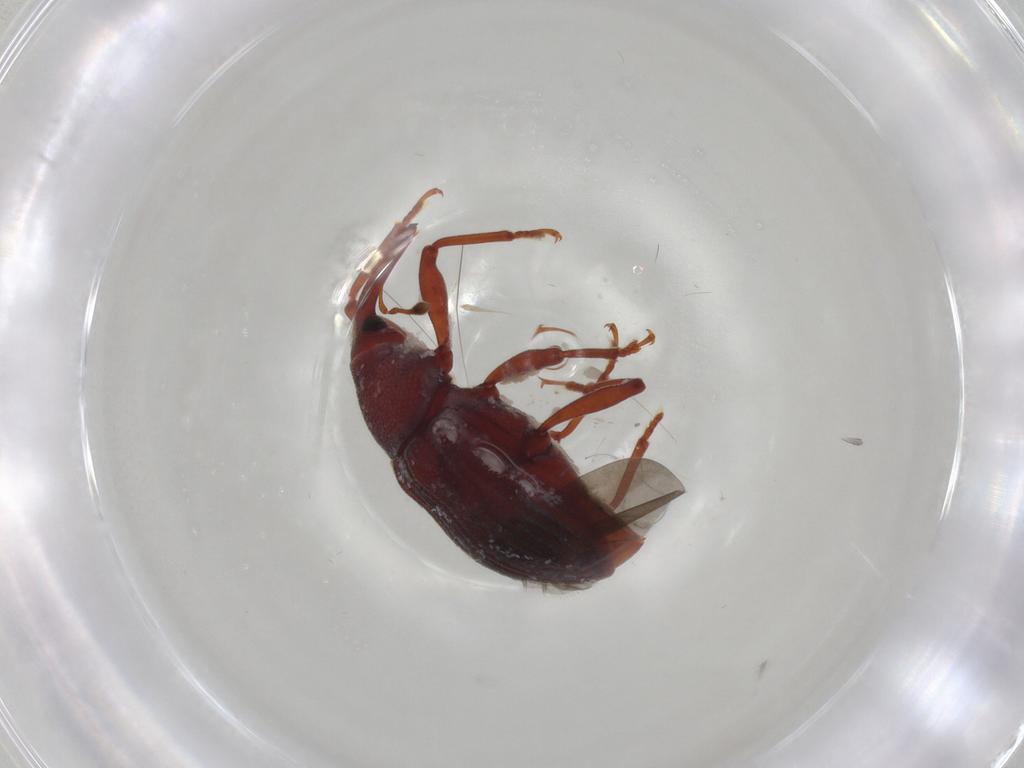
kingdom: Animalia
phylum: Arthropoda
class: Insecta
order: Coleoptera
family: Curculionidae
